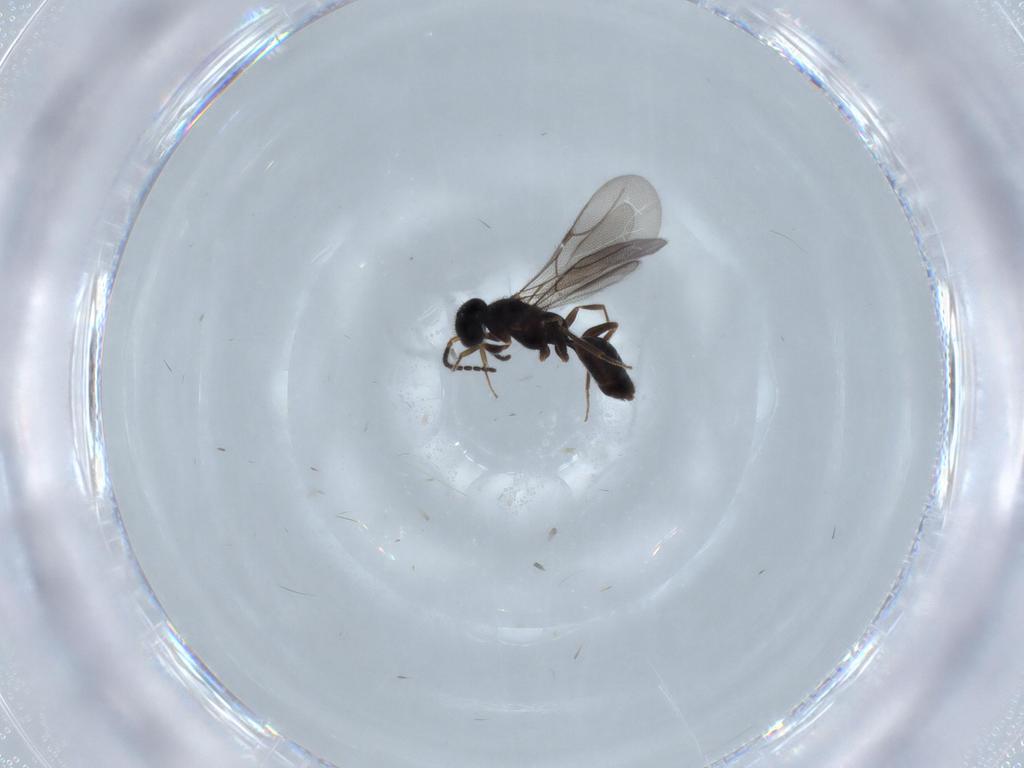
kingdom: Animalia
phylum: Arthropoda
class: Insecta
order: Hymenoptera
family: Bethylidae
